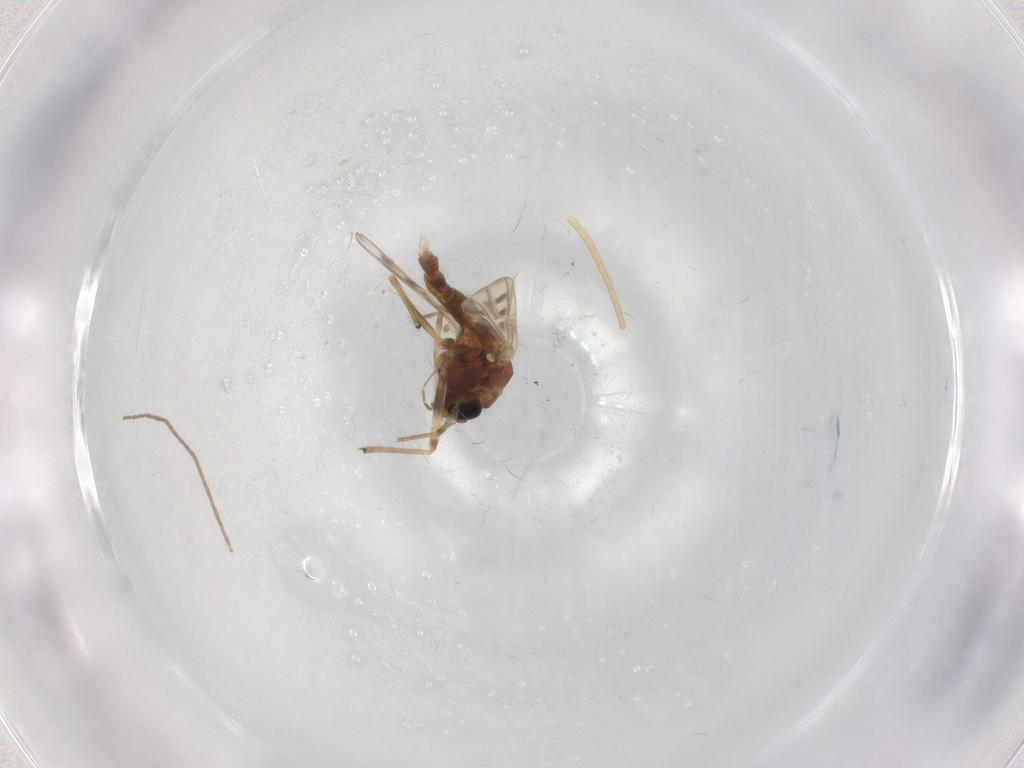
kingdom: Animalia
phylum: Arthropoda
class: Insecta
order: Diptera
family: Chironomidae
